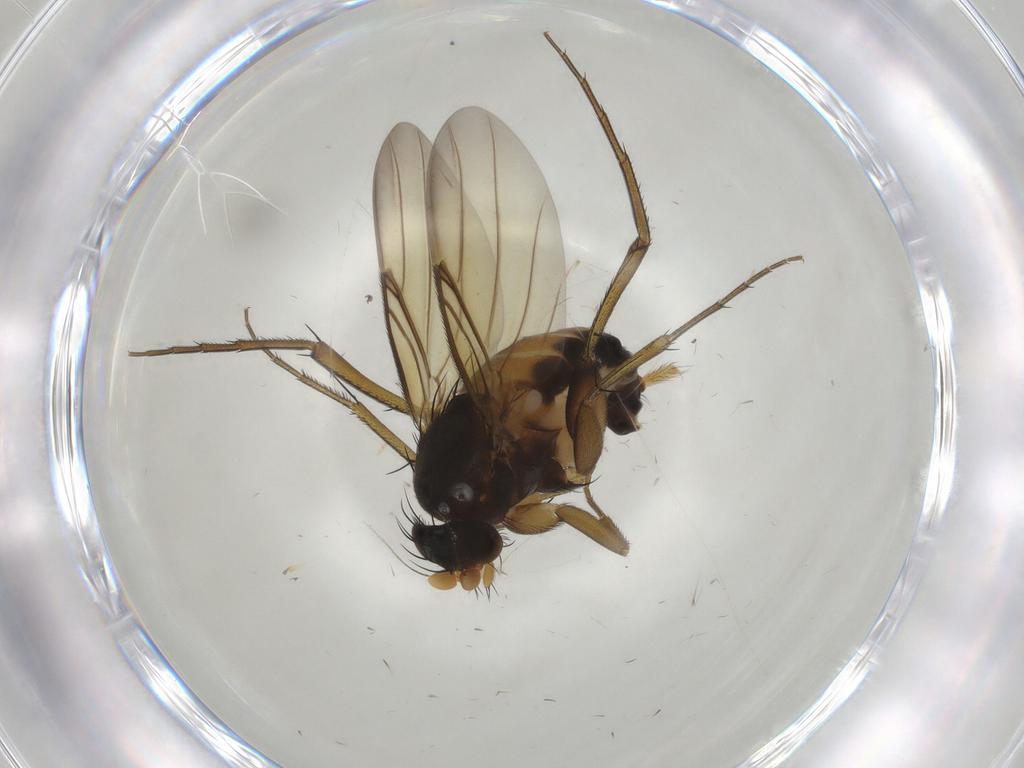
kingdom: Animalia
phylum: Arthropoda
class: Insecta
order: Diptera
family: Phoridae
